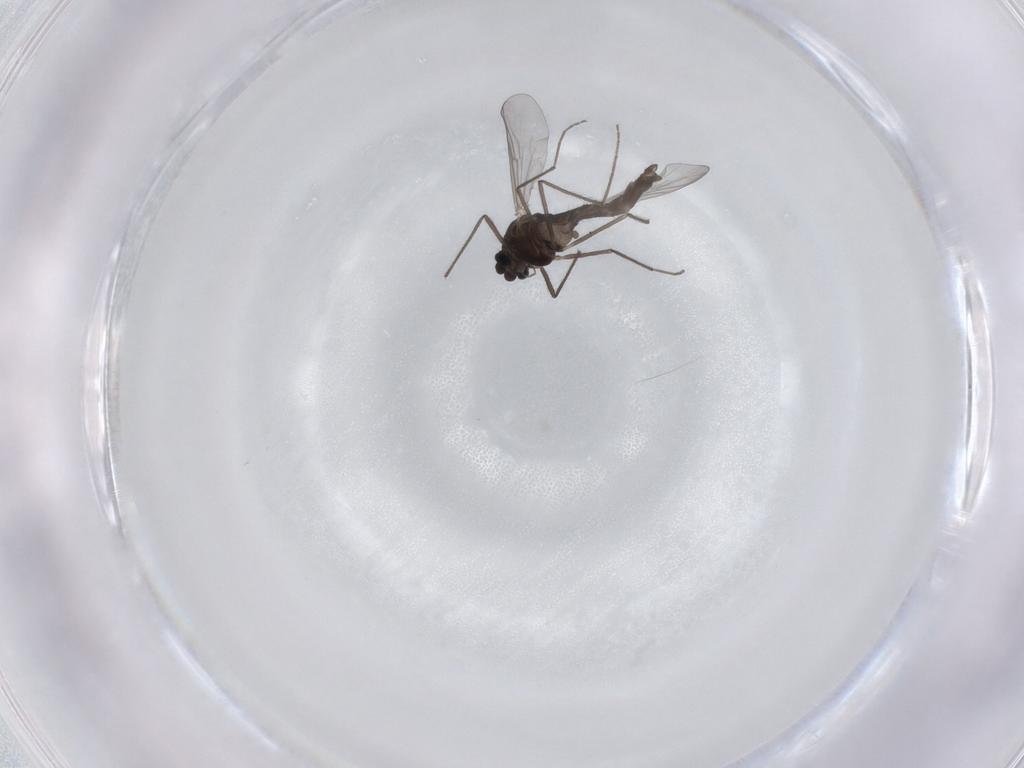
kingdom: Animalia
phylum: Arthropoda
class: Insecta
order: Diptera
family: Chironomidae
